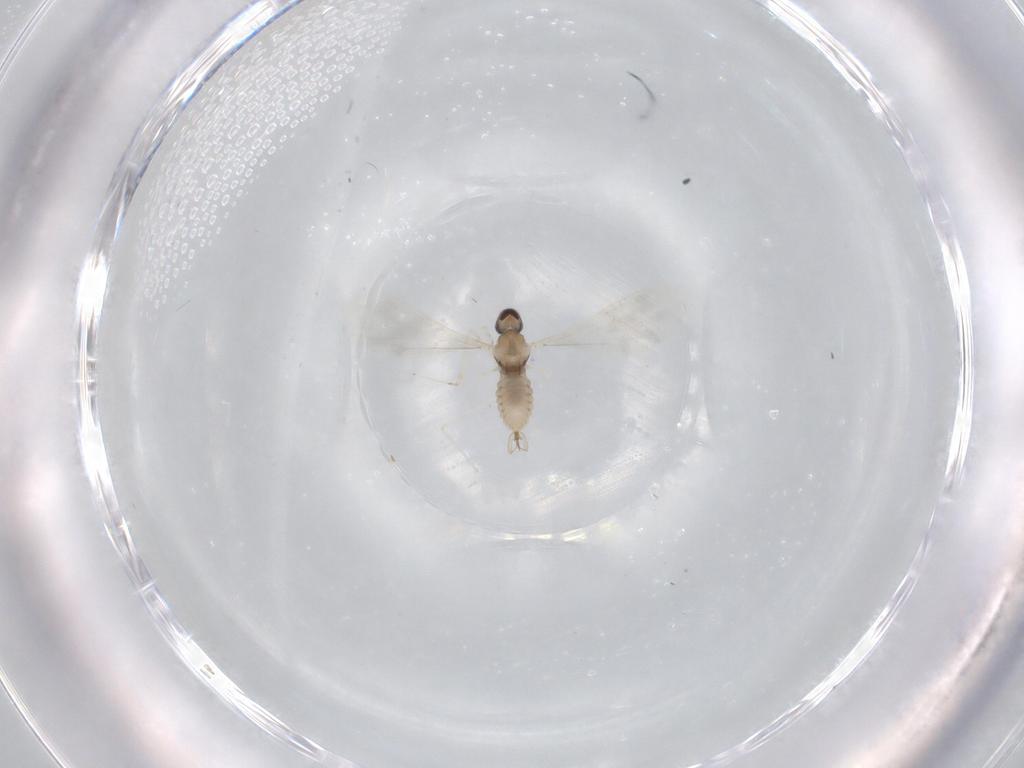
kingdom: Animalia
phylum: Arthropoda
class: Insecta
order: Diptera
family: Cecidomyiidae
